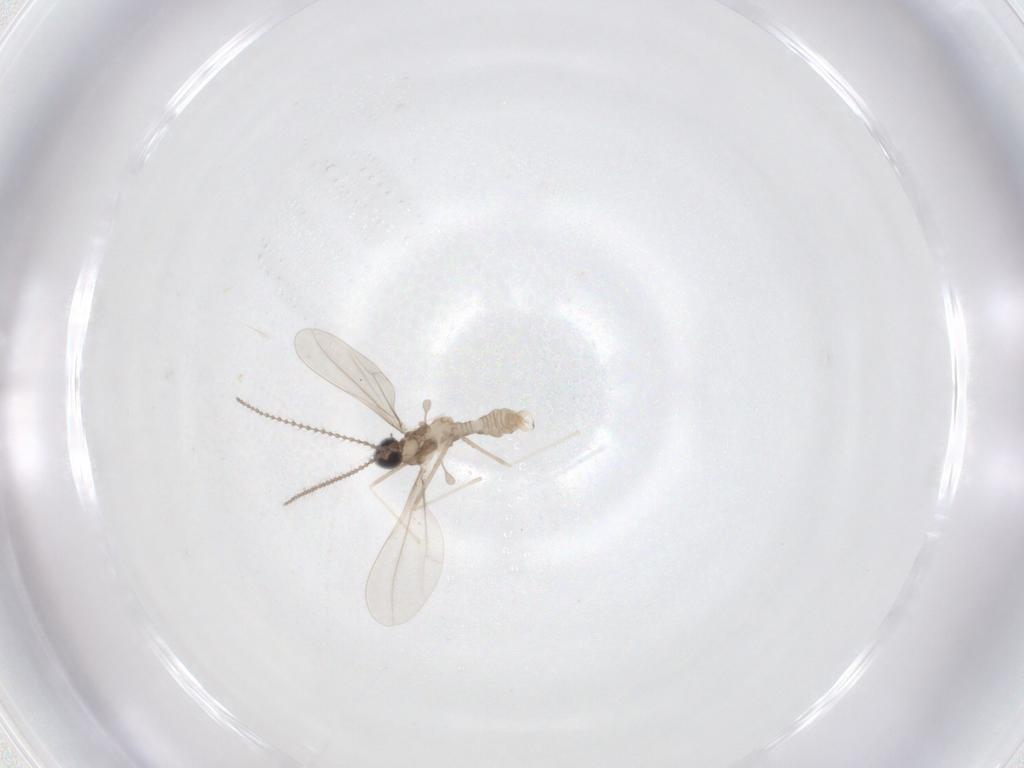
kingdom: Animalia
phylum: Arthropoda
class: Insecta
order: Diptera
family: Cecidomyiidae
